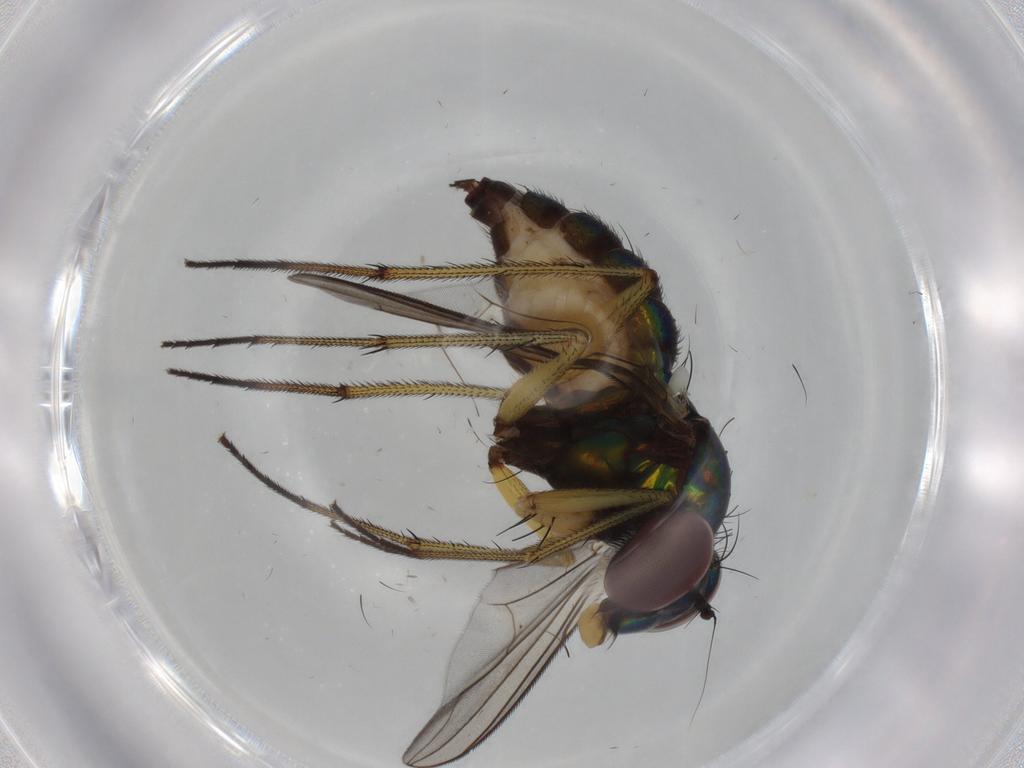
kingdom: Animalia
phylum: Arthropoda
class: Insecta
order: Diptera
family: Dolichopodidae
